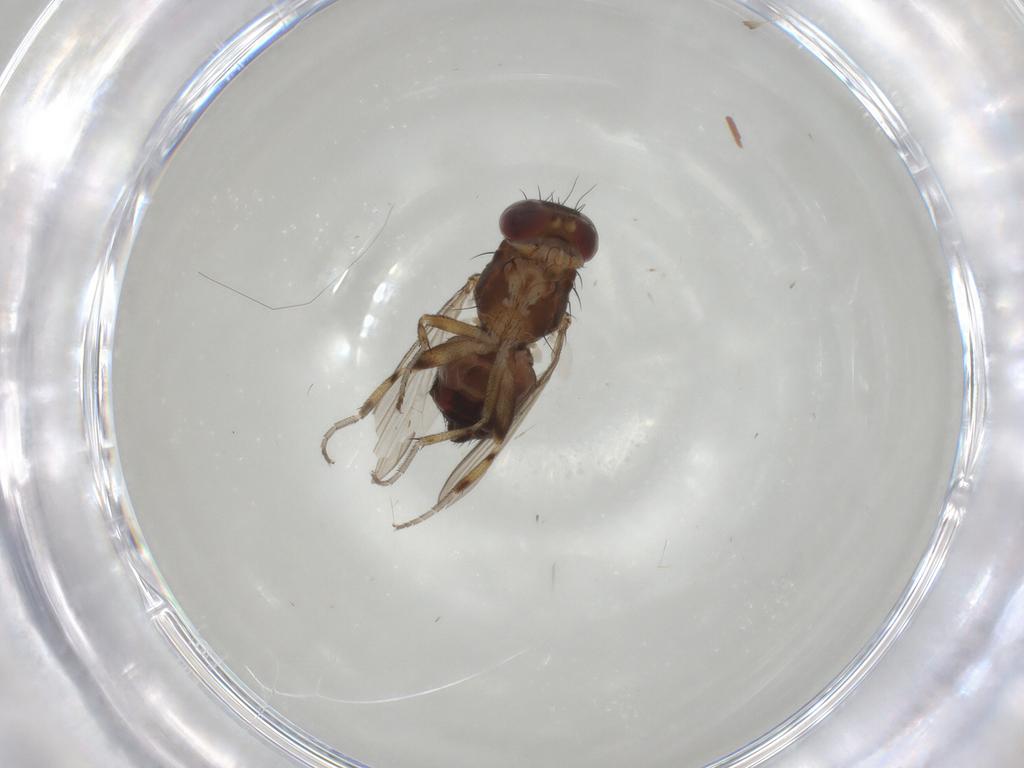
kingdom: Animalia
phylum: Arthropoda
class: Insecta
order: Diptera
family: Heleomyzidae
